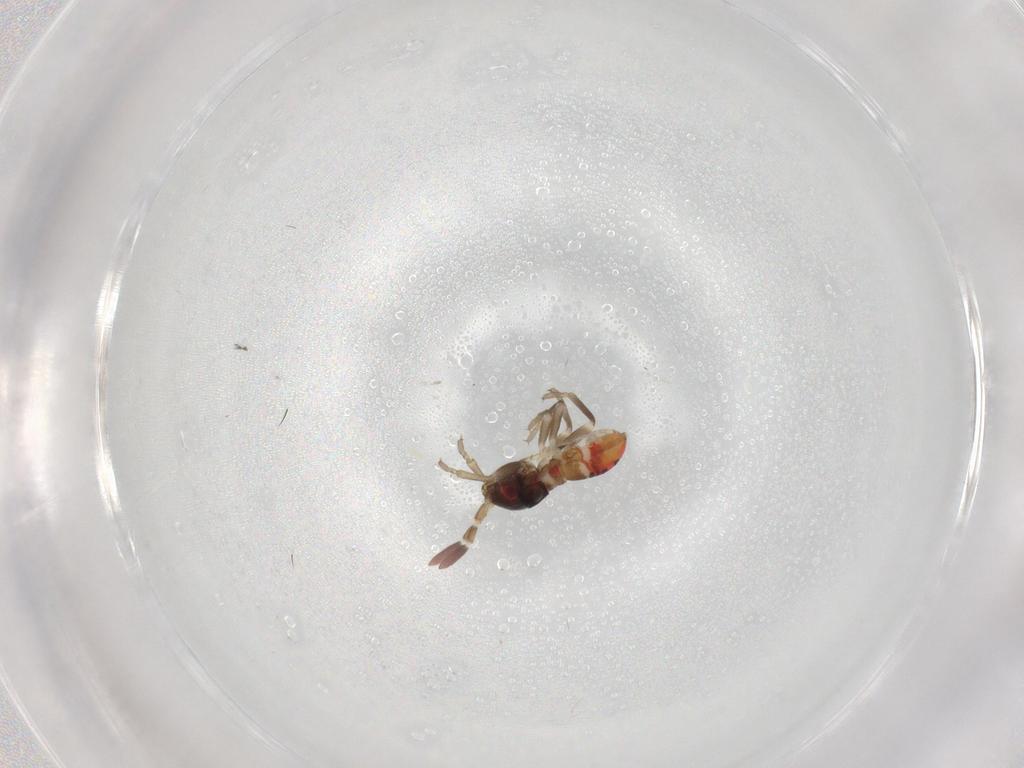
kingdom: Animalia
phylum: Arthropoda
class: Insecta
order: Hemiptera
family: Rhyparochromidae
